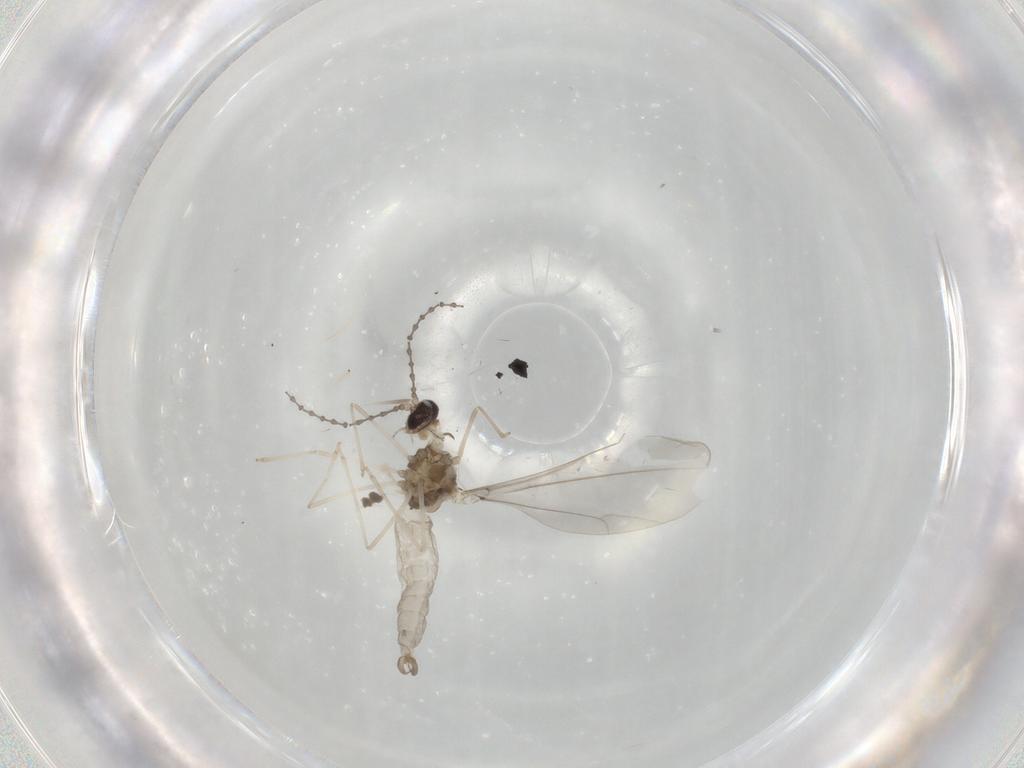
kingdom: Animalia
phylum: Arthropoda
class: Insecta
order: Diptera
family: Cecidomyiidae
